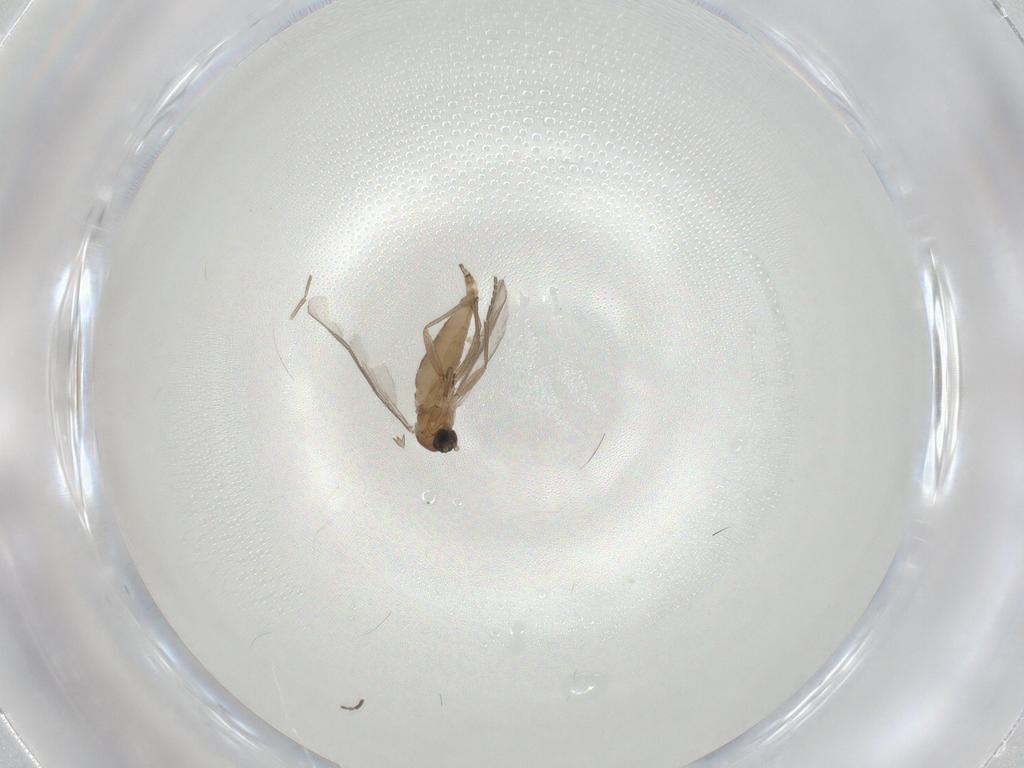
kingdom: Animalia
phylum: Arthropoda
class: Insecta
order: Diptera
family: Sciaridae
